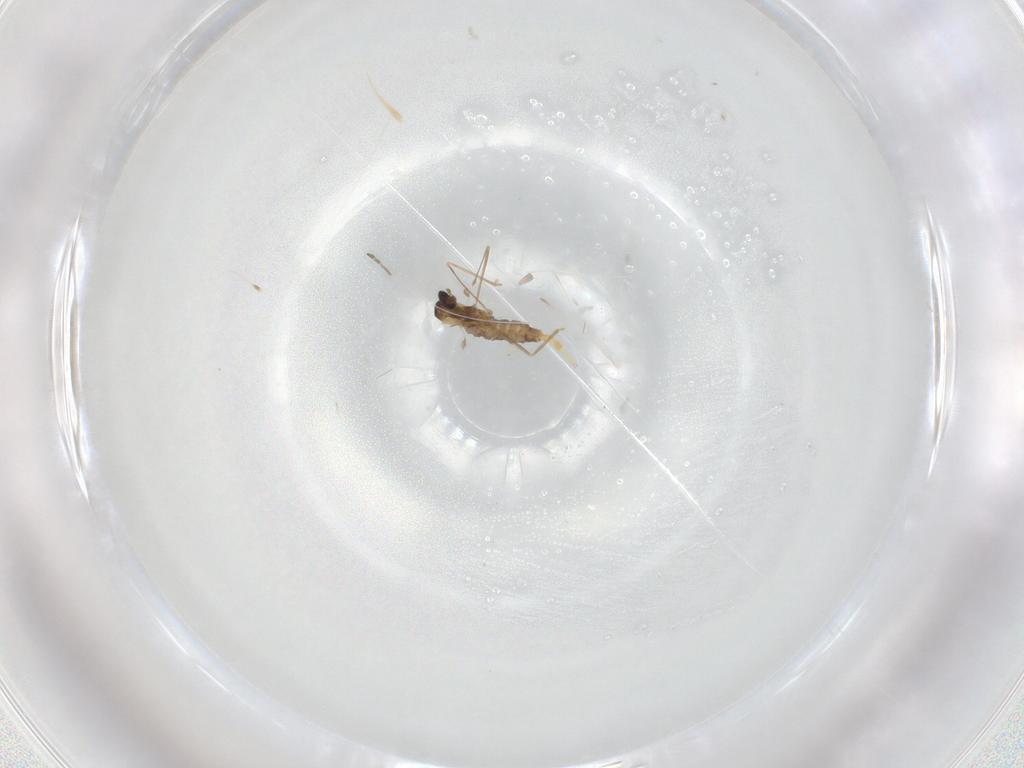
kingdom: Animalia
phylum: Arthropoda
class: Insecta
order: Diptera
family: Cecidomyiidae
